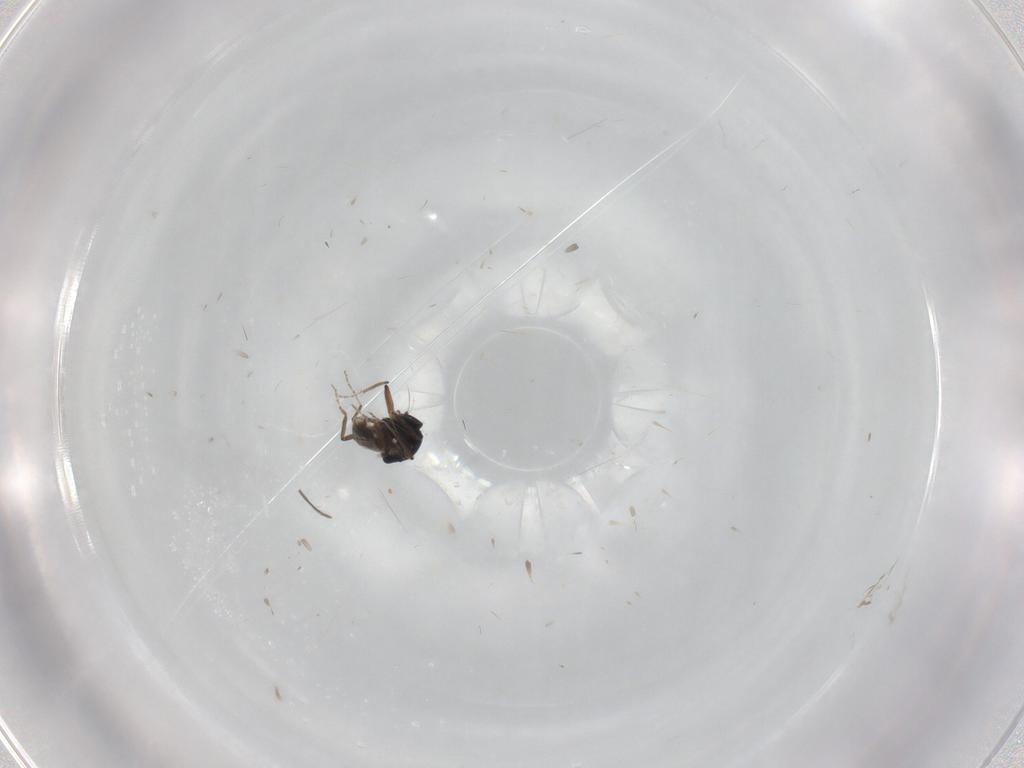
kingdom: Animalia
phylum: Arthropoda
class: Insecta
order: Diptera
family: Ceratopogonidae
